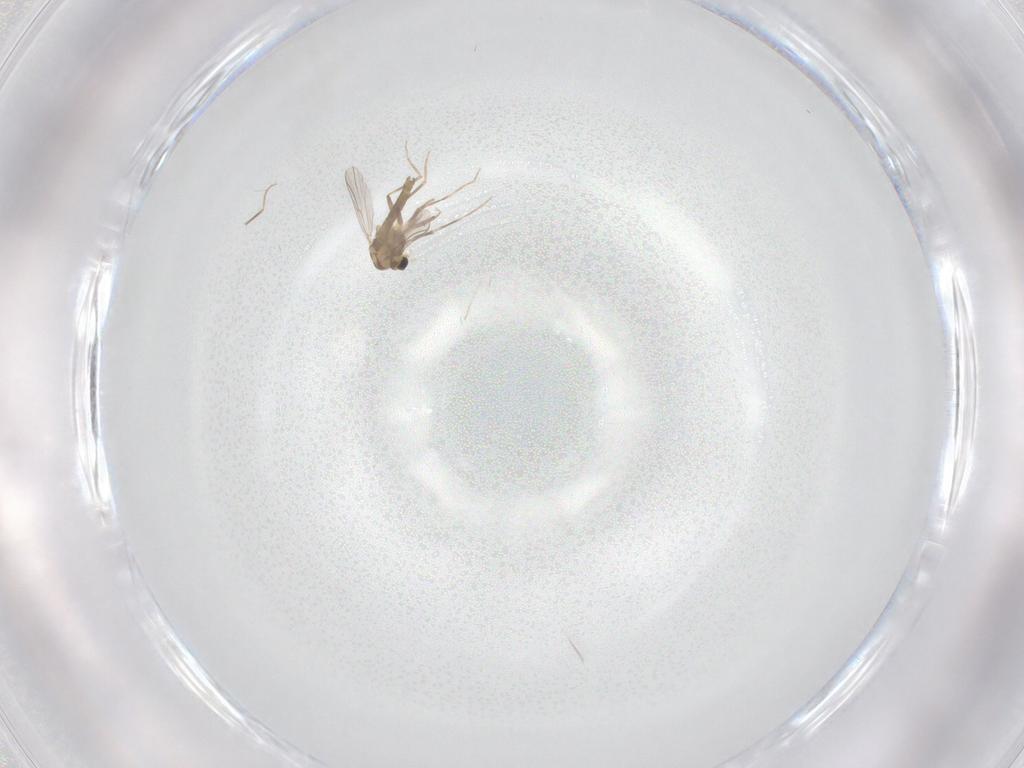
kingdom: Animalia
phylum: Arthropoda
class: Insecta
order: Diptera
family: Chironomidae
